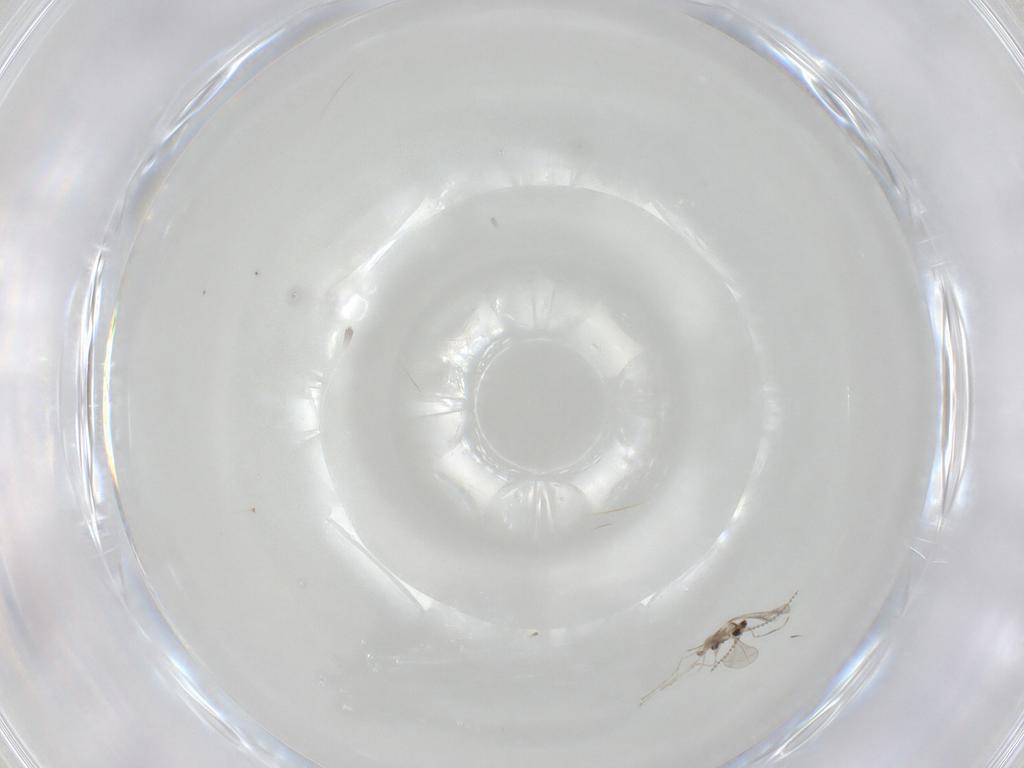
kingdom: Animalia
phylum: Arthropoda
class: Insecta
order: Diptera
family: Cecidomyiidae
